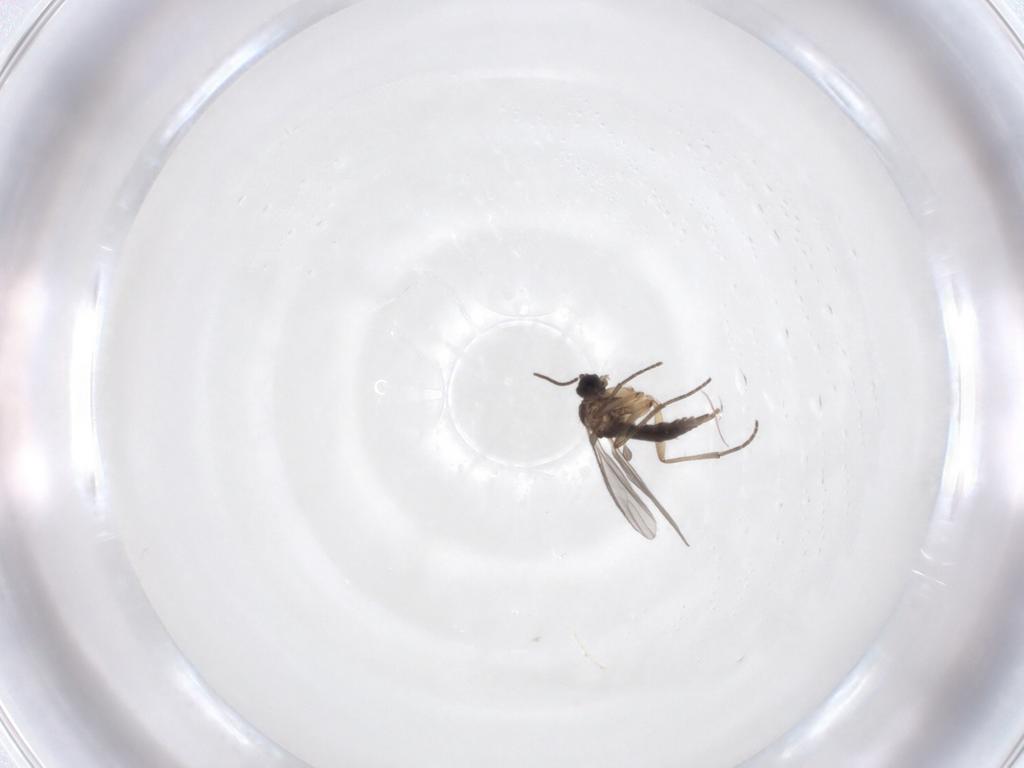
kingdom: Animalia
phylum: Arthropoda
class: Insecta
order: Diptera
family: Sciaridae
